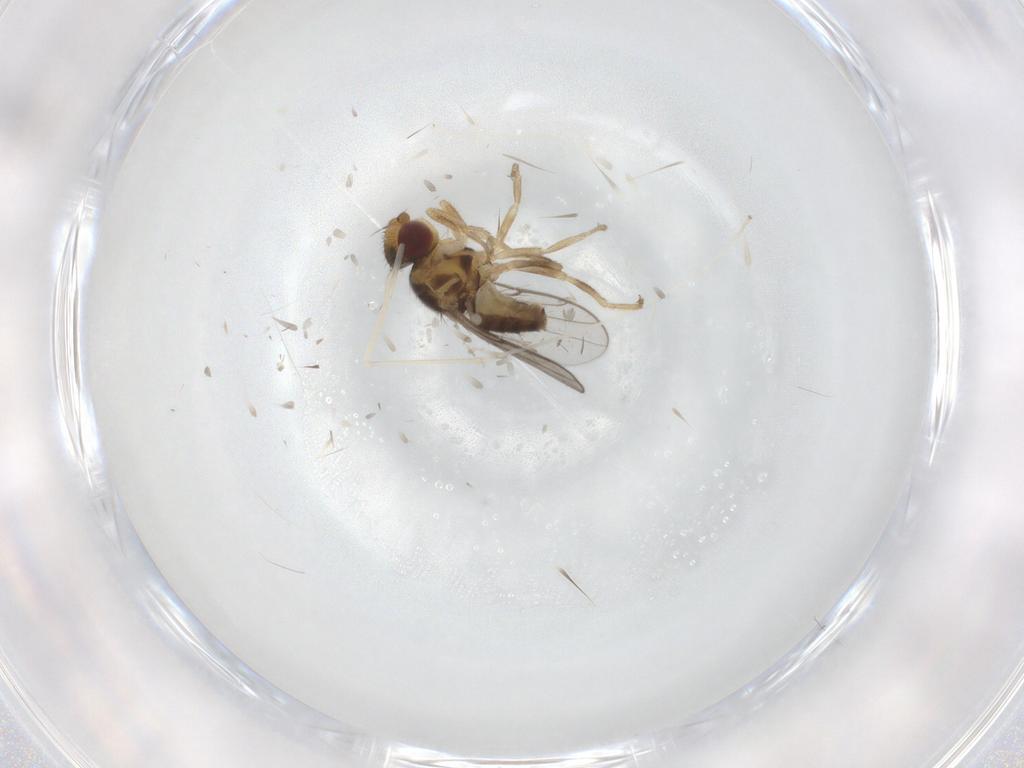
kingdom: Animalia
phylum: Arthropoda
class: Insecta
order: Diptera
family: Chloropidae
